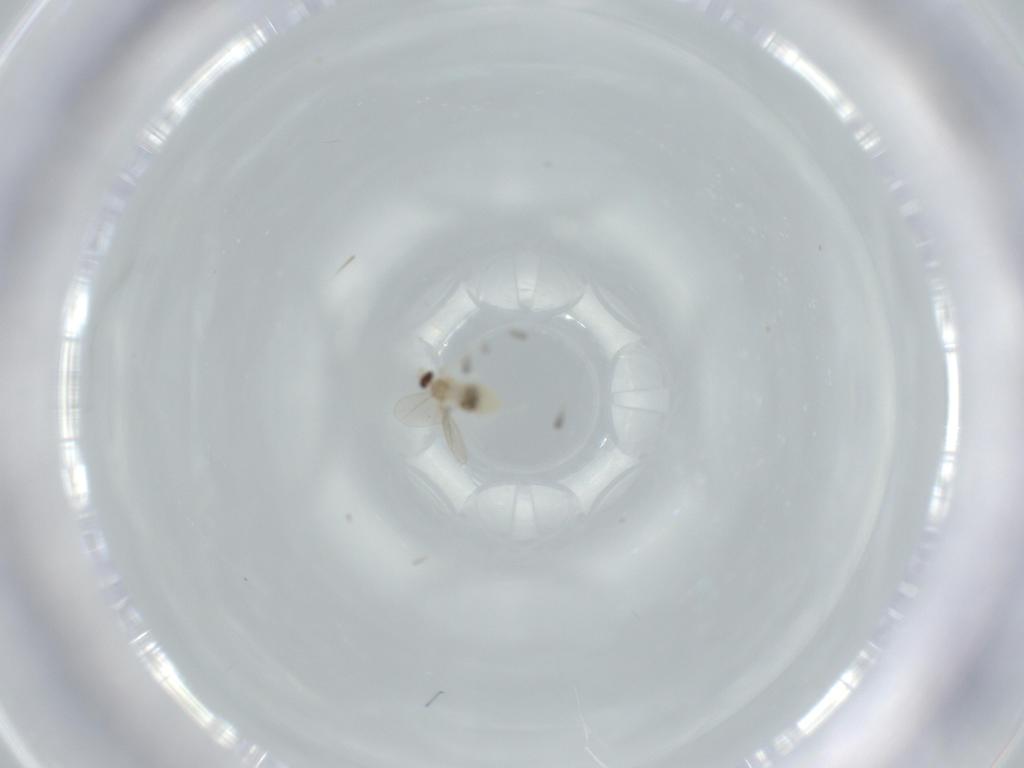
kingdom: Animalia
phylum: Arthropoda
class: Insecta
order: Diptera
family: Cecidomyiidae
